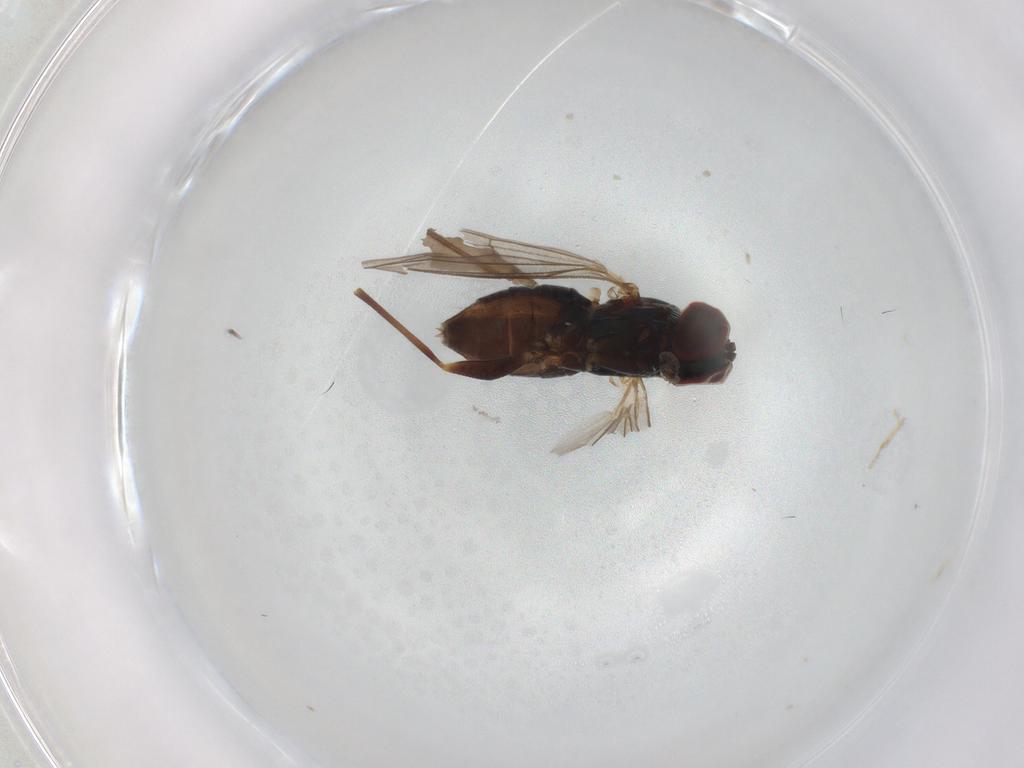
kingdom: Animalia
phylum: Arthropoda
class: Insecta
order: Diptera
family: Dolichopodidae
